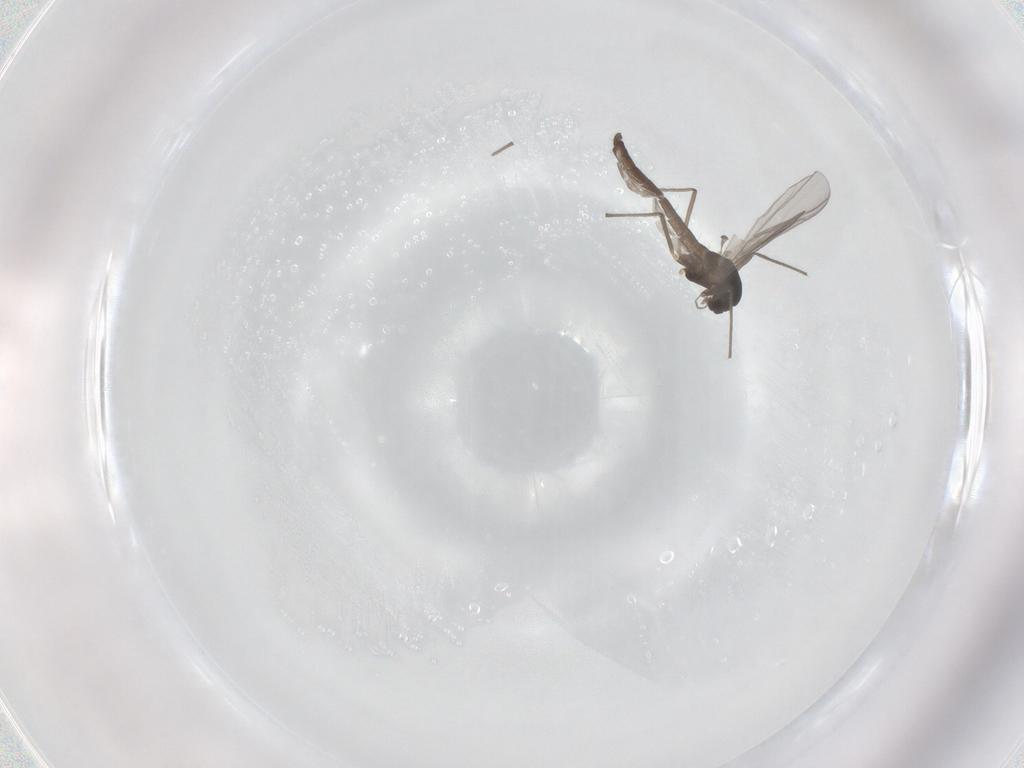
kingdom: Animalia
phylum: Arthropoda
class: Insecta
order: Diptera
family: Chironomidae
